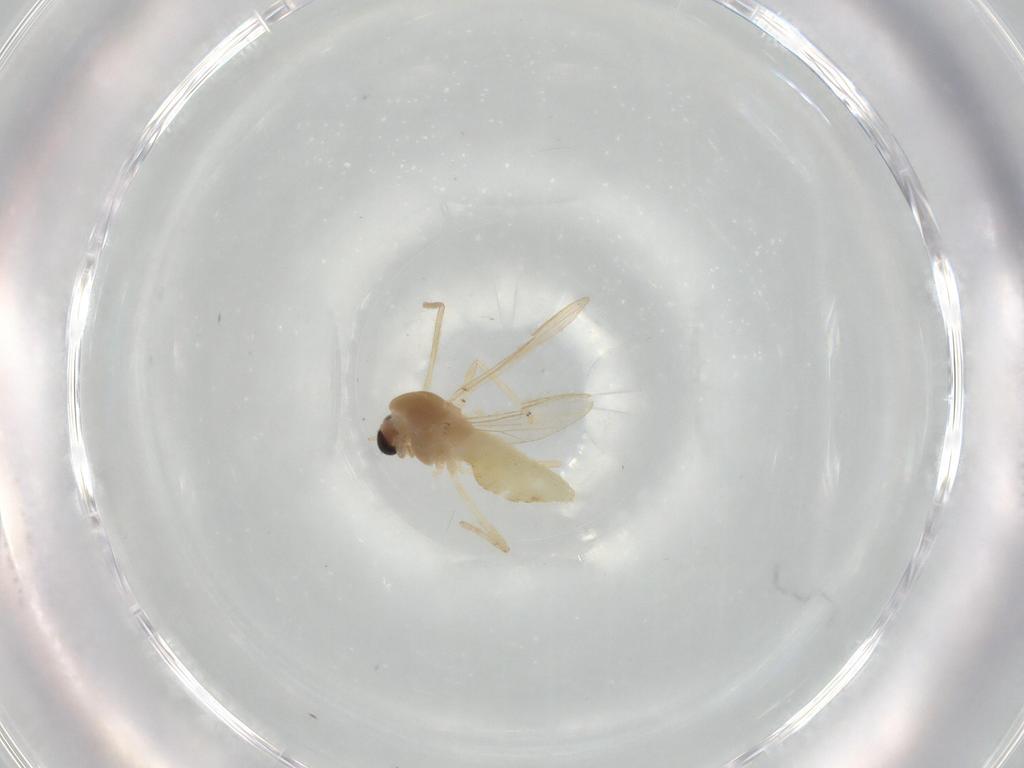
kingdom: Animalia
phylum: Arthropoda
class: Insecta
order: Diptera
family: Chironomidae
